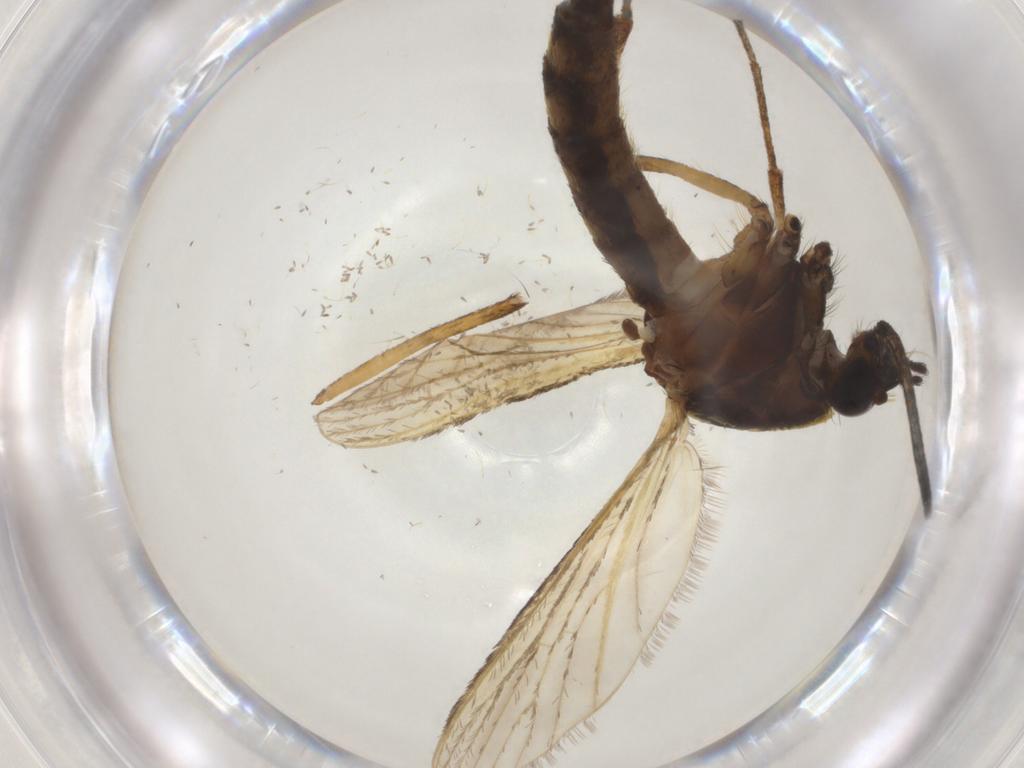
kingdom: Animalia
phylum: Arthropoda
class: Insecta
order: Diptera
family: Culicidae
